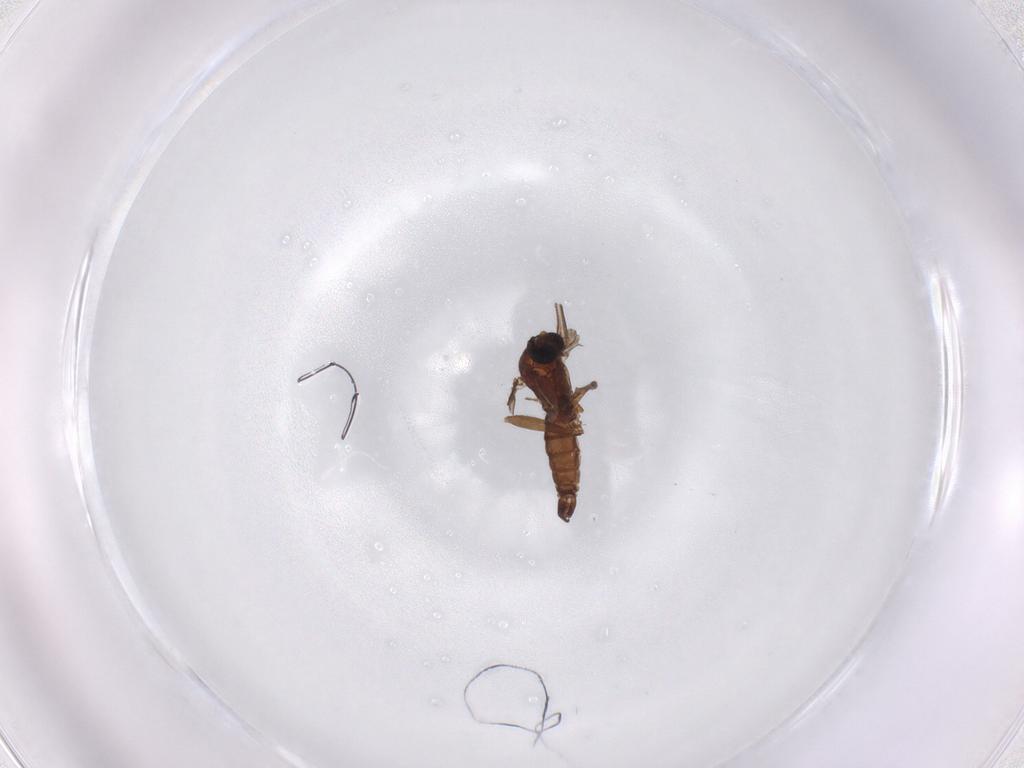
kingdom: Animalia
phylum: Arthropoda
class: Insecta
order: Diptera
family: Sciaridae
